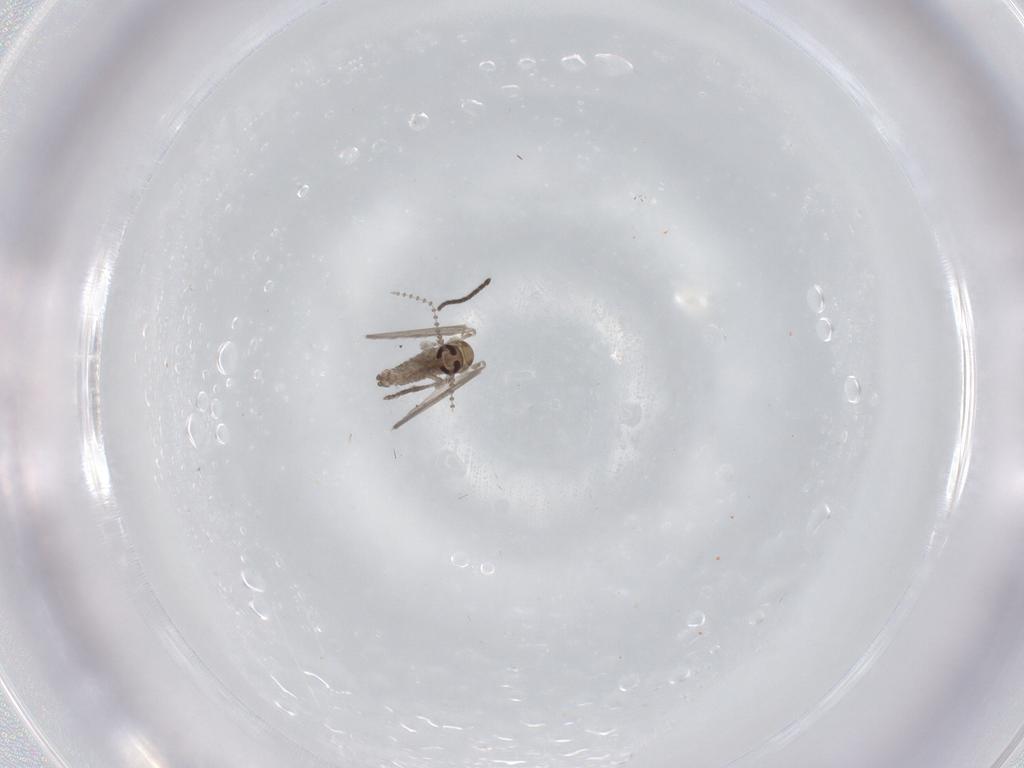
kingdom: Animalia
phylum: Arthropoda
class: Insecta
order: Diptera
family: Psychodidae
